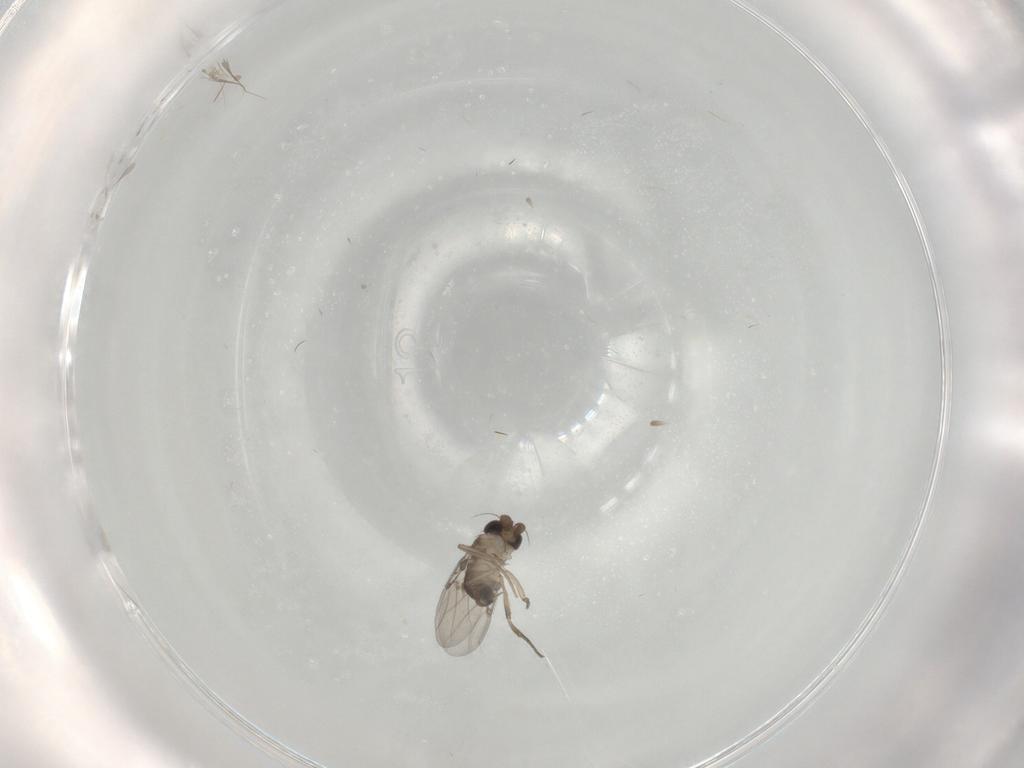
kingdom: Animalia
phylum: Arthropoda
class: Insecta
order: Diptera
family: Phoridae
